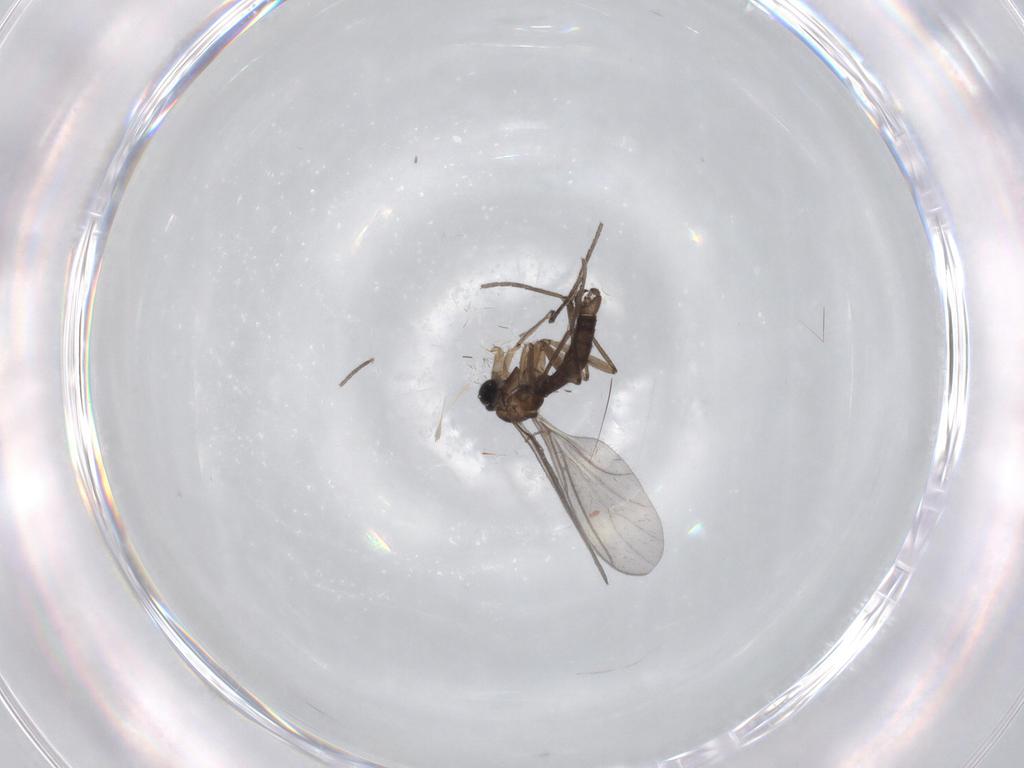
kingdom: Animalia
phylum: Arthropoda
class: Insecta
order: Diptera
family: Sciaridae
